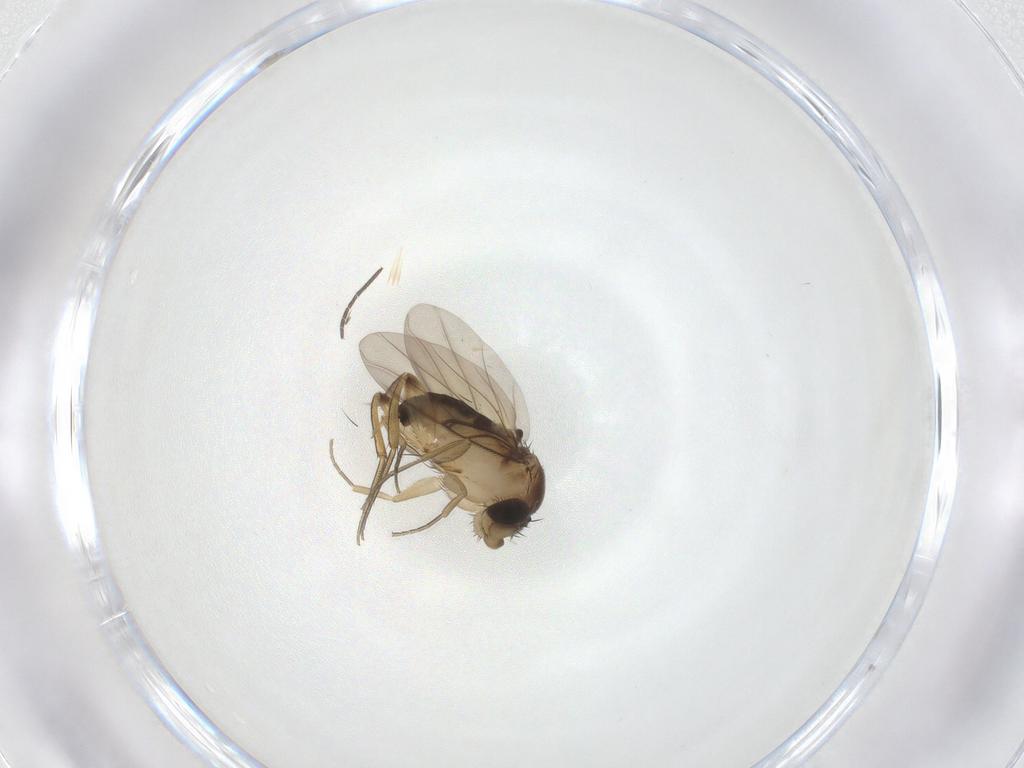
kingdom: Animalia
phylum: Arthropoda
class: Insecta
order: Diptera
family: Phoridae
